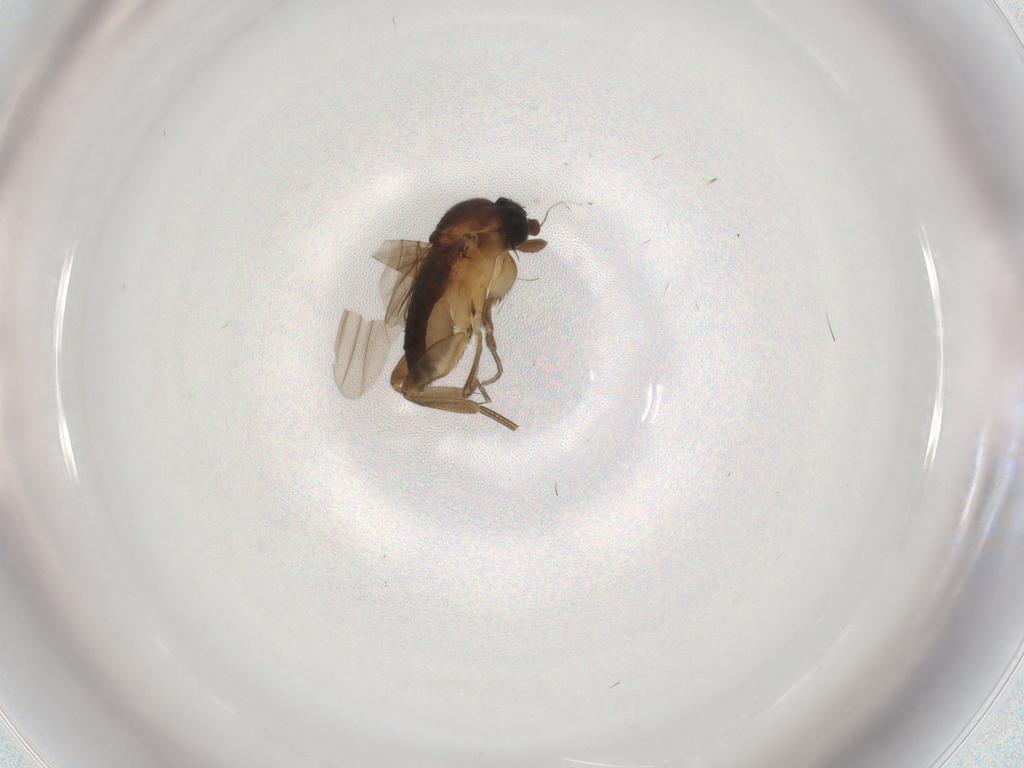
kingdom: Animalia
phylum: Arthropoda
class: Insecta
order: Diptera
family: Phoridae
